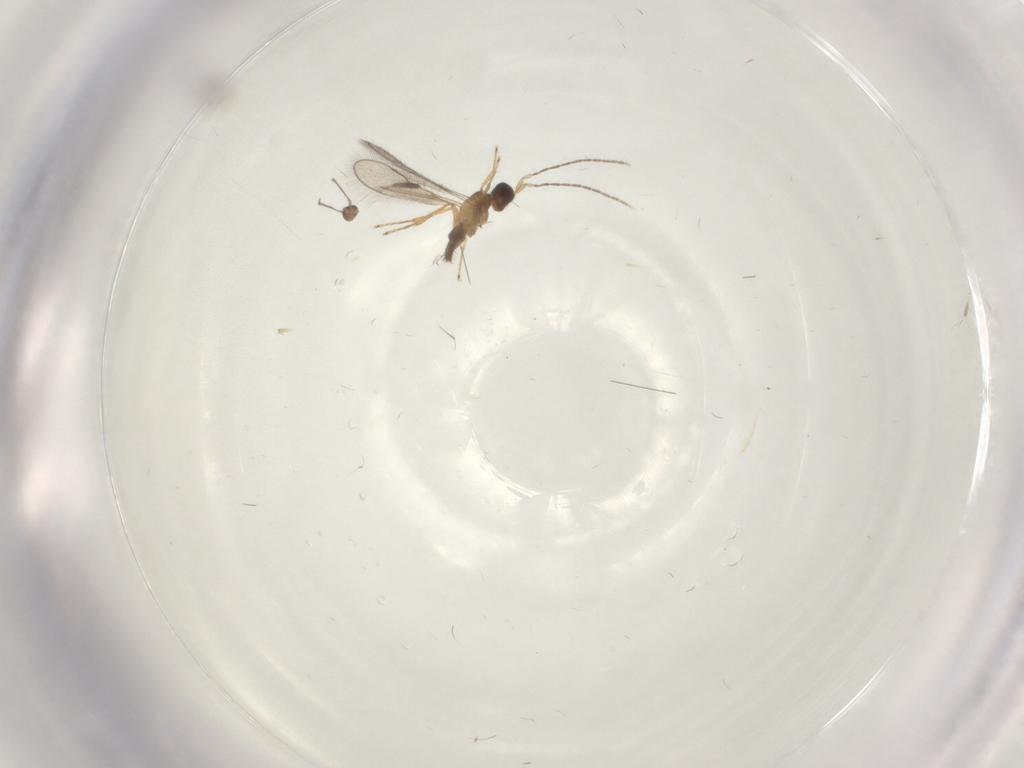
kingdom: Animalia
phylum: Arthropoda
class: Insecta
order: Hymenoptera
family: Mymaridae
